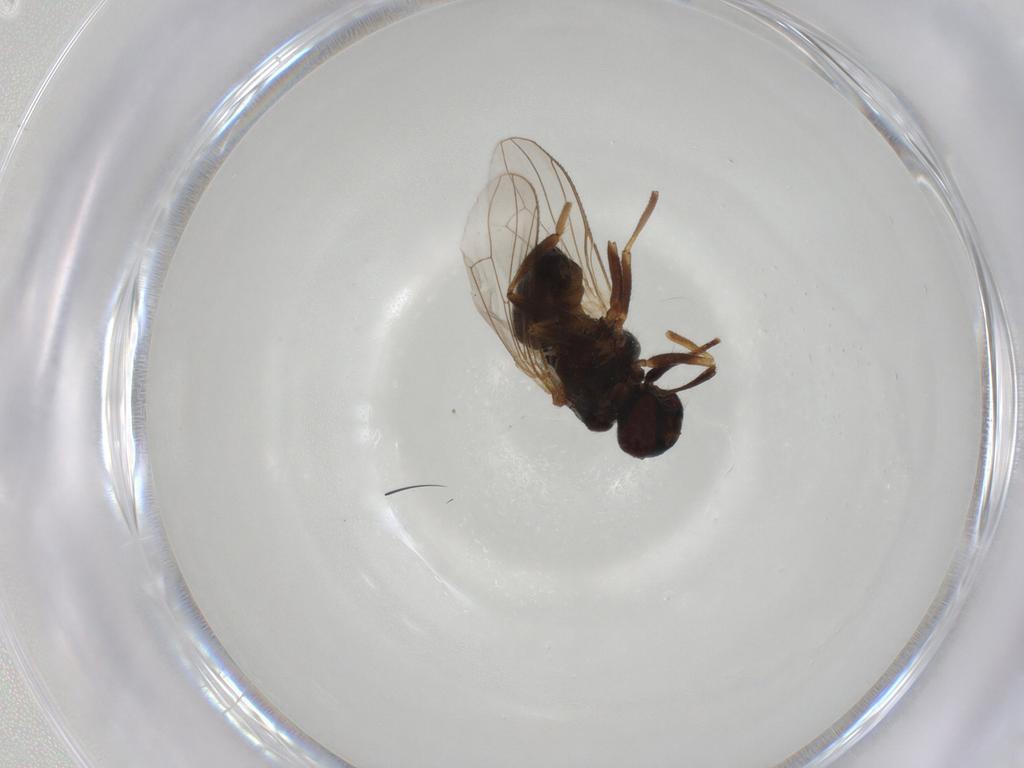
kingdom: Animalia
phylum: Arthropoda
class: Insecta
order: Diptera
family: Muscidae
